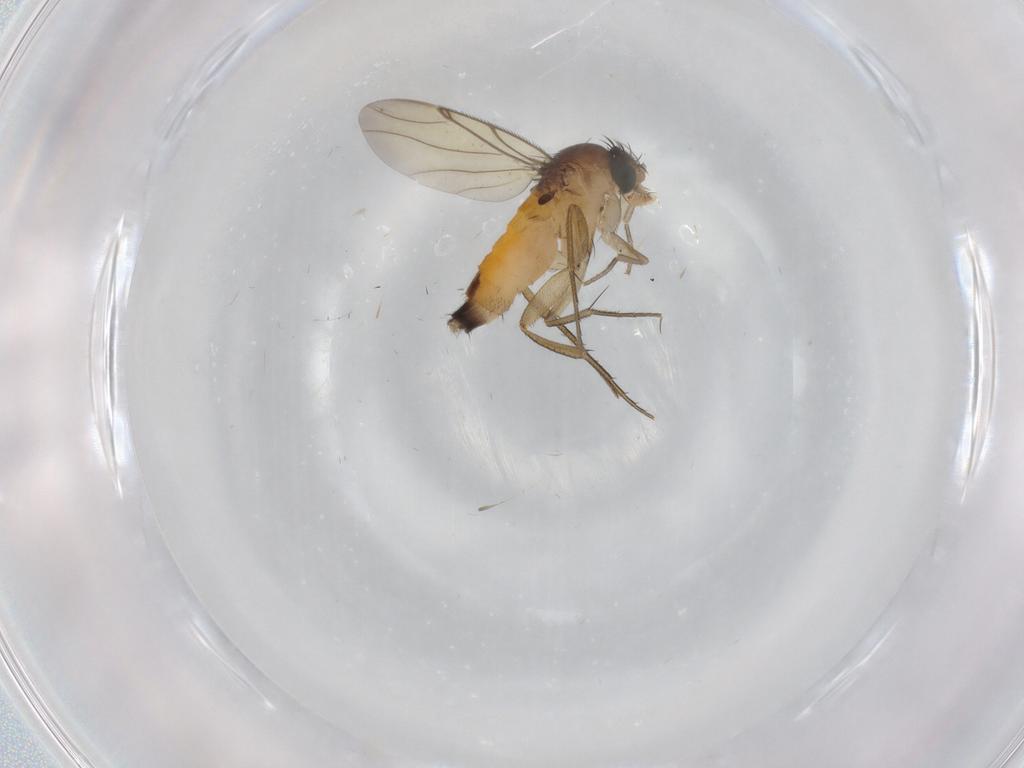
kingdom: Animalia
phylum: Arthropoda
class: Insecta
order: Diptera
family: Phoridae
